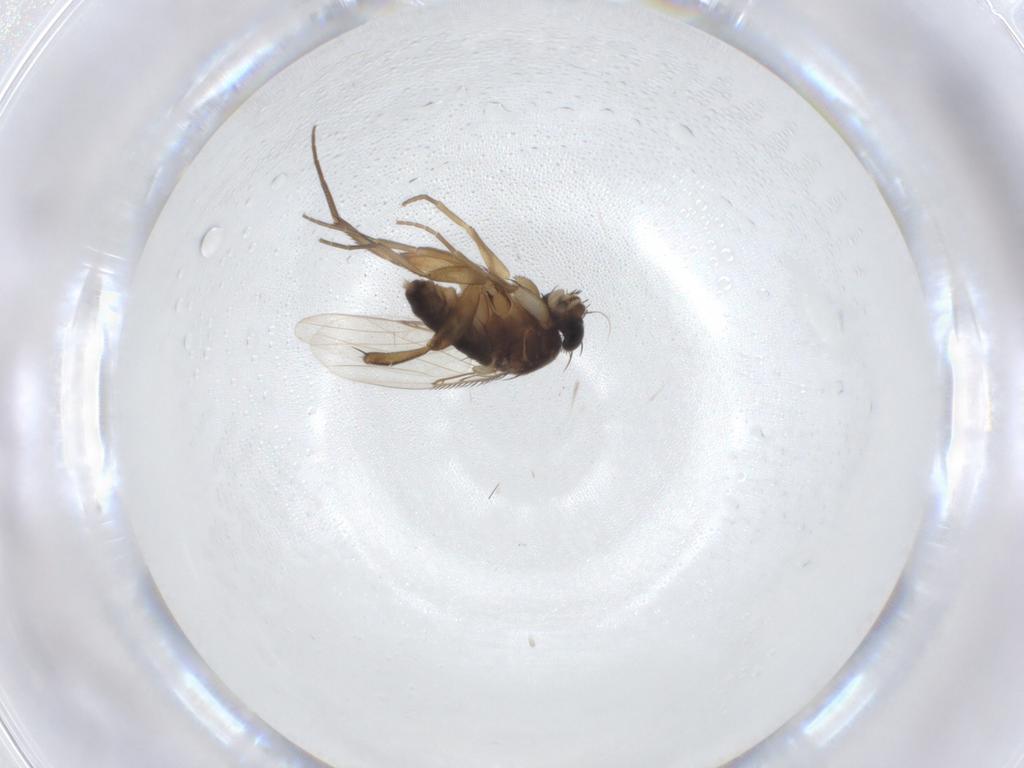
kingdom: Animalia
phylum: Arthropoda
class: Insecta
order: Diptera
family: Phoridae
